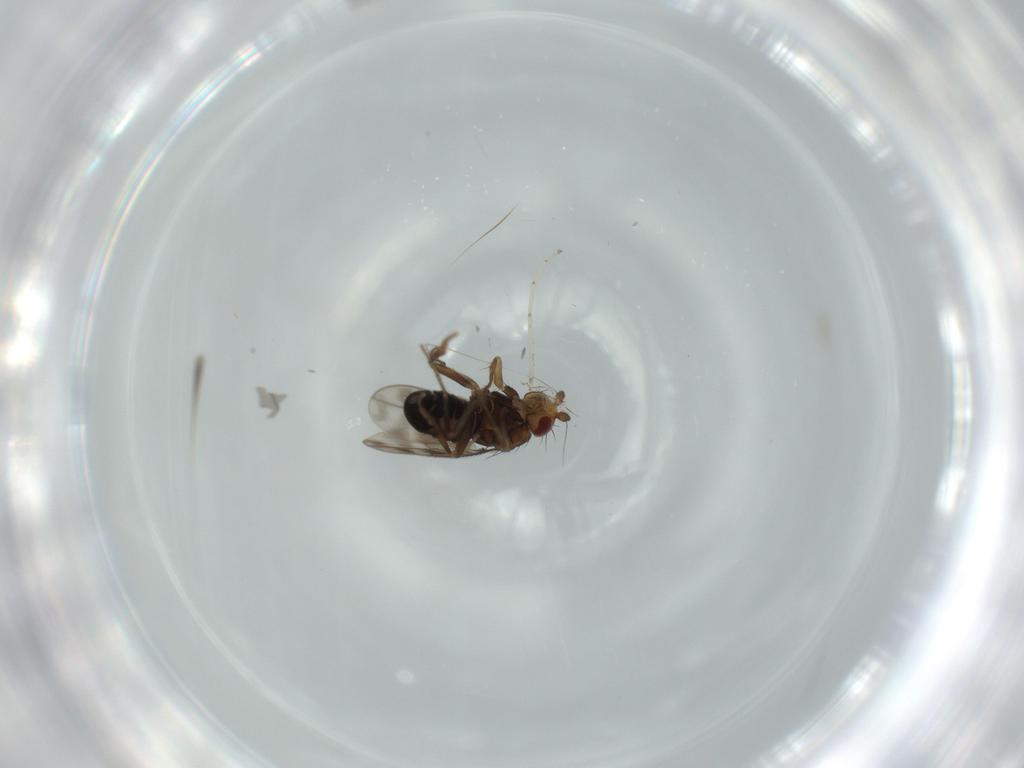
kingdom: Animalia
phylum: Arthropoda
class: Insecta
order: Diptera
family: Sphaeroceridae
